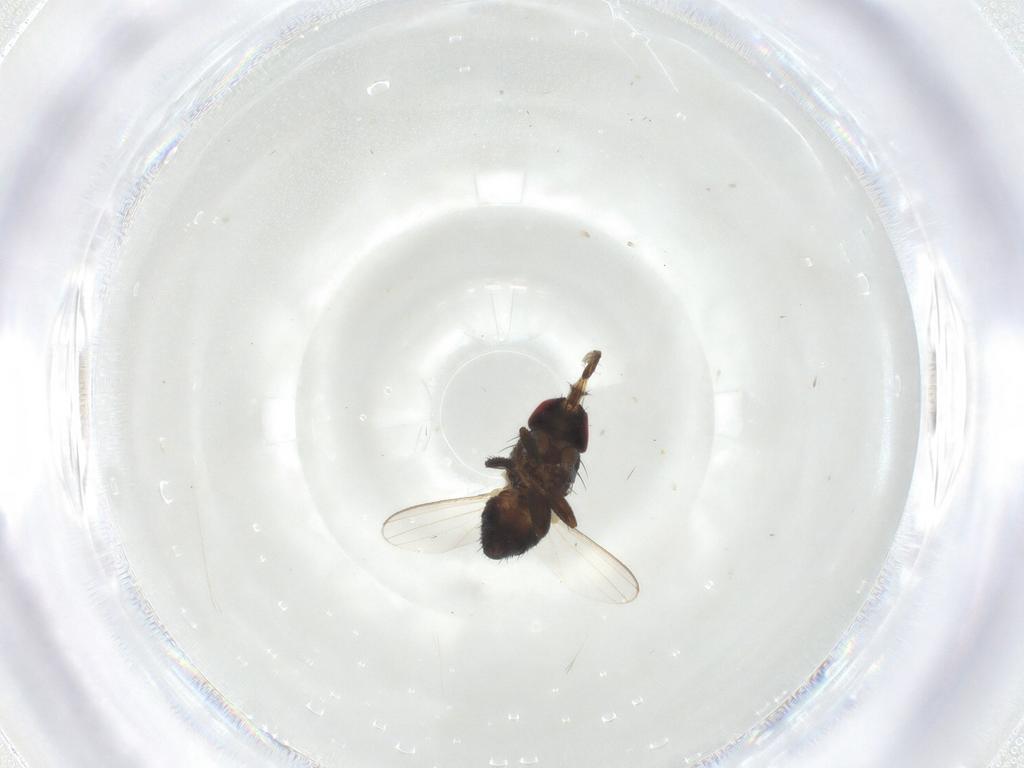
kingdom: Animalia
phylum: Arthropoda
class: Insecta
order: Diptera
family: Milichiidae
